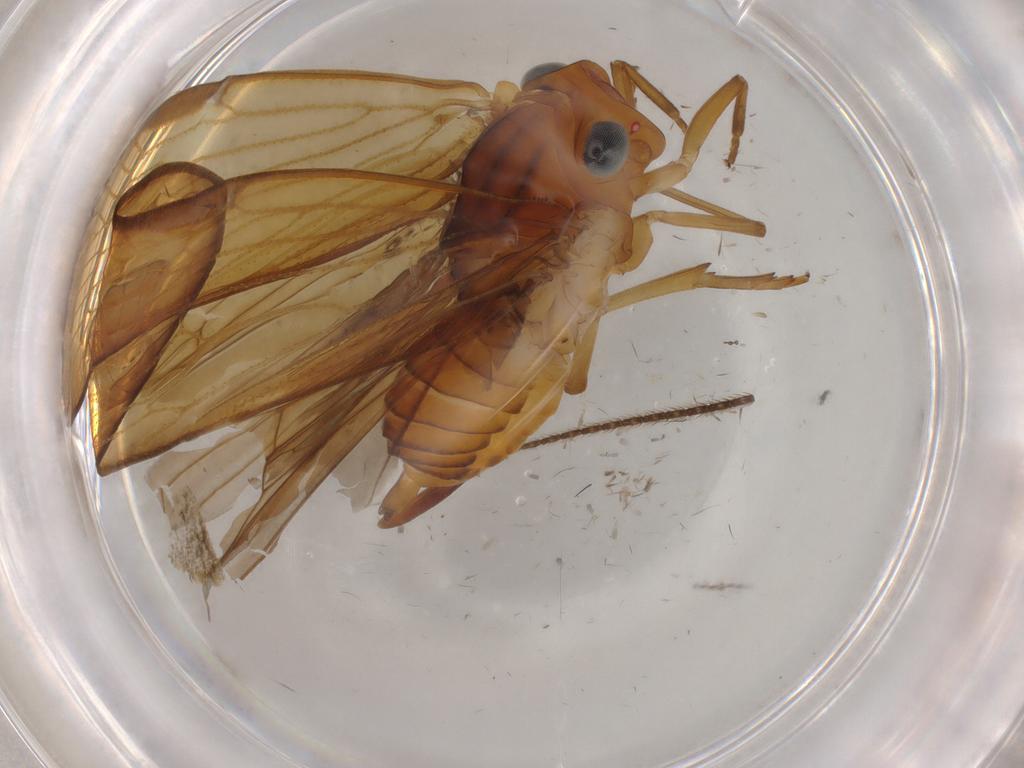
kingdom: Animalia
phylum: Arthropoda
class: Insecta
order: Hemiptera
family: Cixiidae
